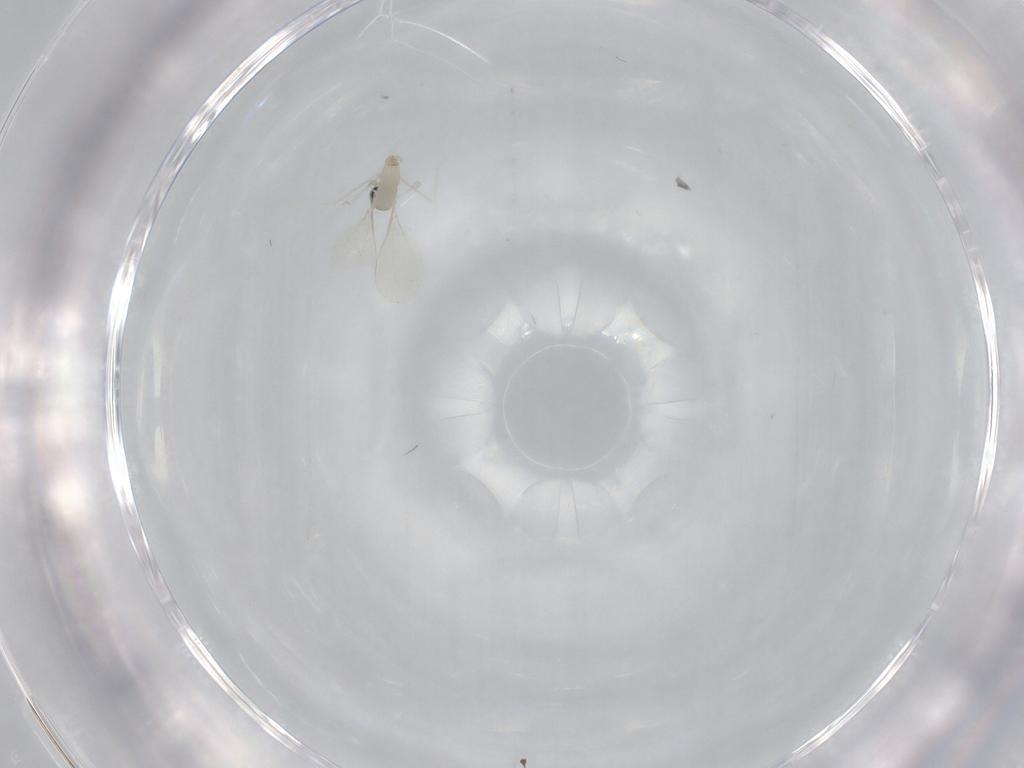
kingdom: Animalia
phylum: Arthropoda
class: Insecta
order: Diptera
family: Cecidomyiidae
